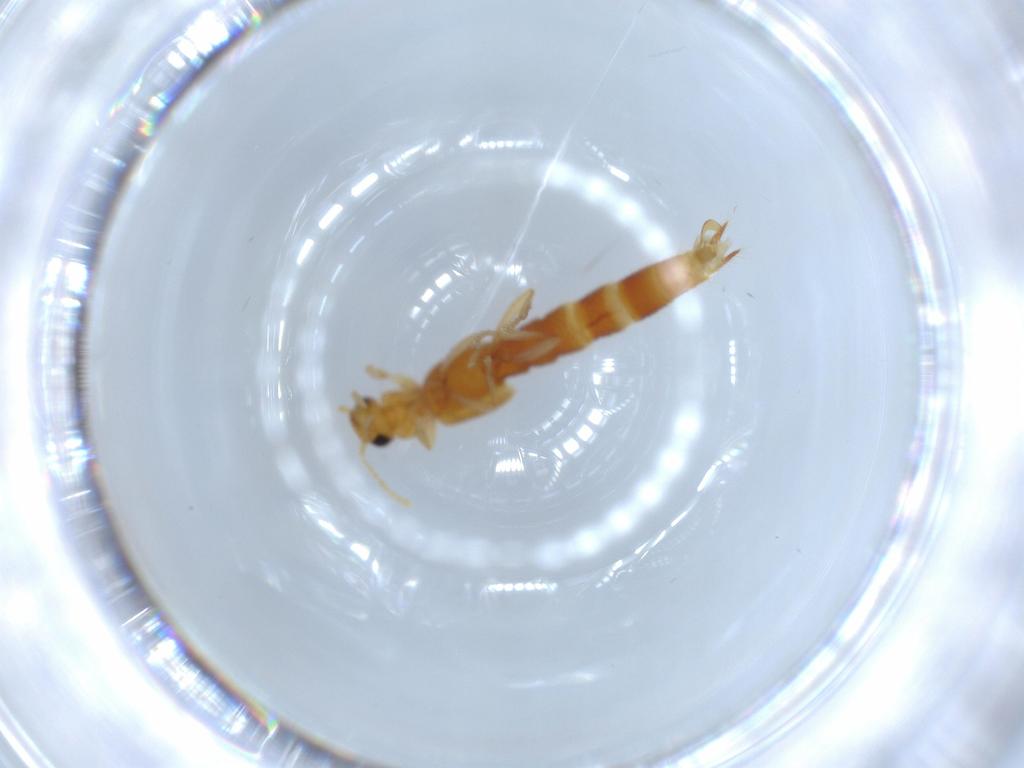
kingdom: Animalia
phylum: Arthropoda
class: Insecta
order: Coleoptera
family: Staphylinidae
